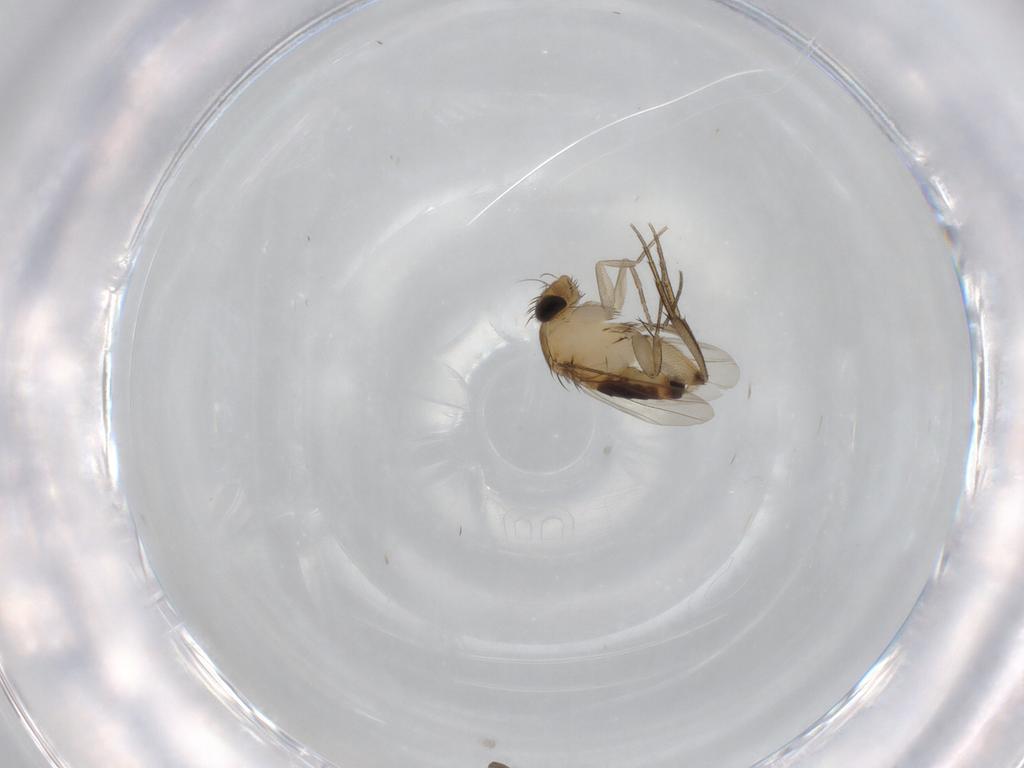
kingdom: Animalia
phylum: Arthropoda
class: Insecta
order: Diptera
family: Phoridae
